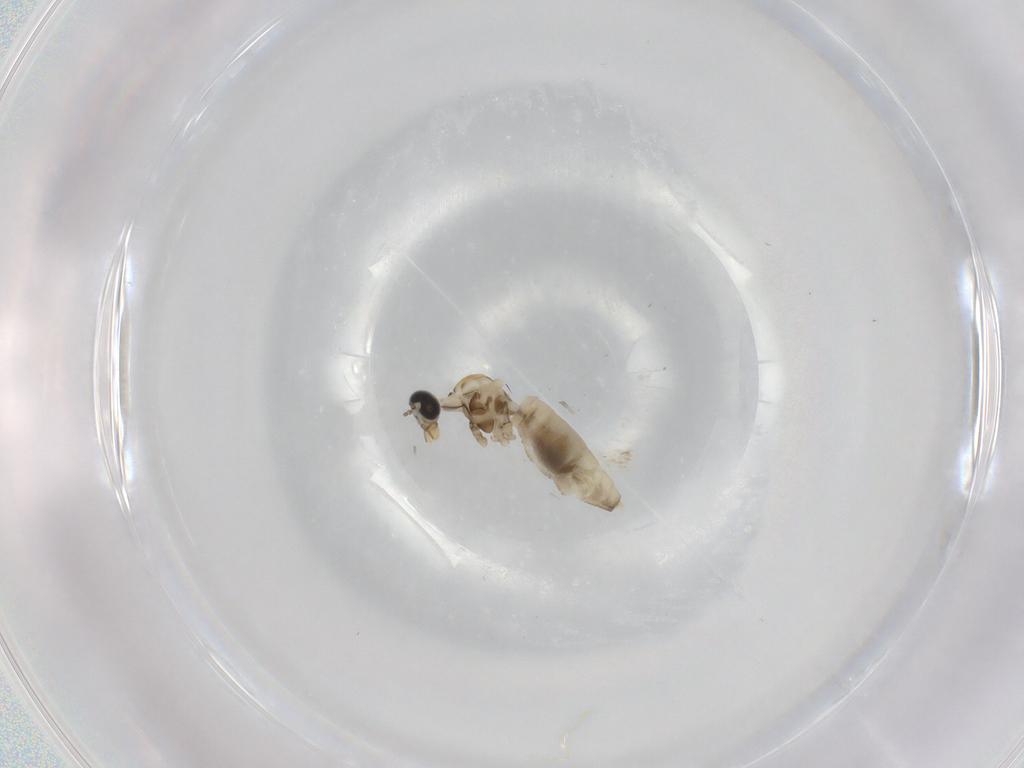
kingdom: Animalia
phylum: Arthropoda
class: Insecta
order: Diptera
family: Cecidomyiidae
